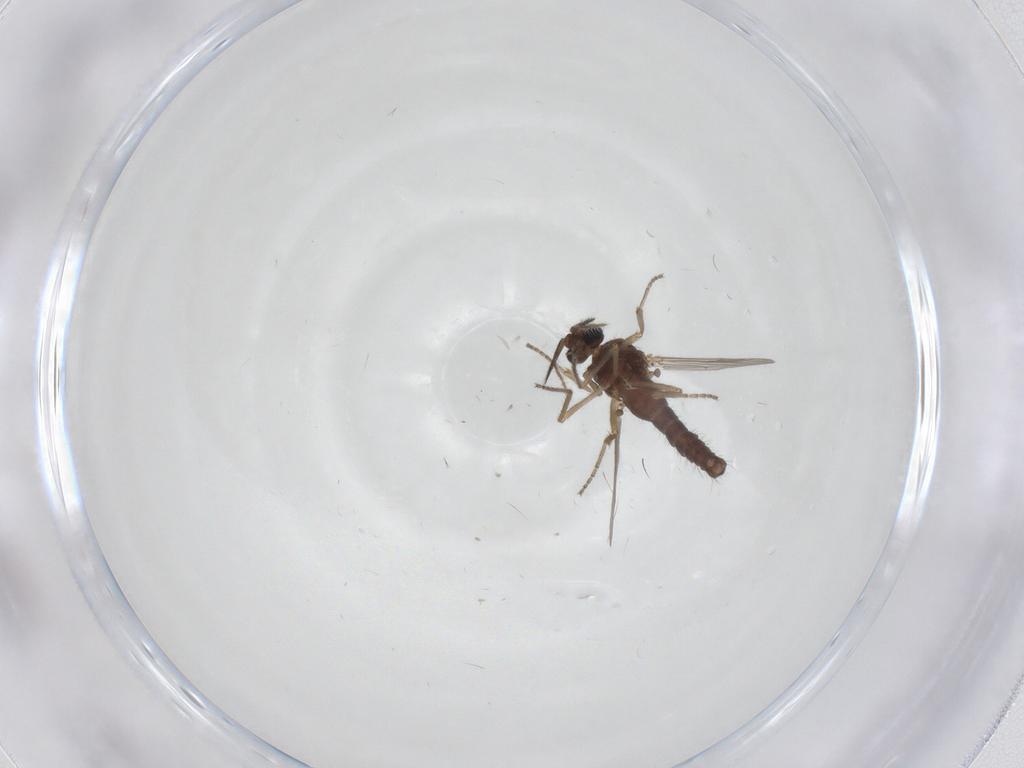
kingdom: Animalia
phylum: Arthropoda
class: Insecta
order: Diptera
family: Ceratopogonidae
